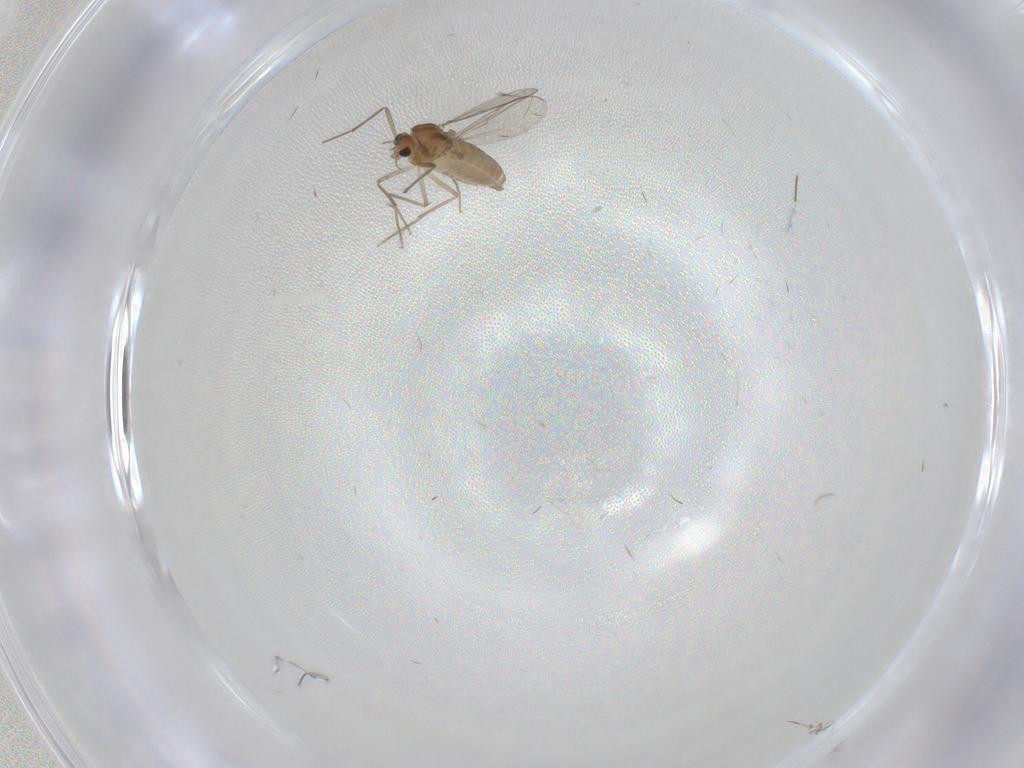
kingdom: Animalia
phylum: Arthropoda
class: Insecta
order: Diptera
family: Chironomidae
